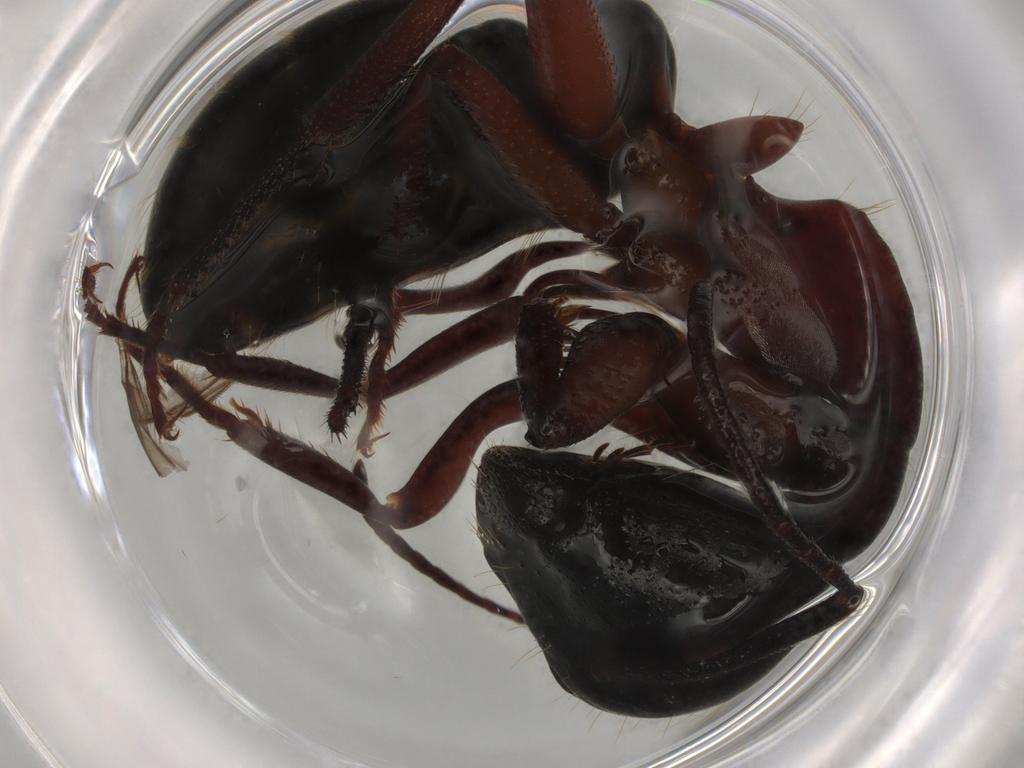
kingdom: Animalia
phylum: Arthropoda
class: Insecta
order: Hymenoptera
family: Formicidae
